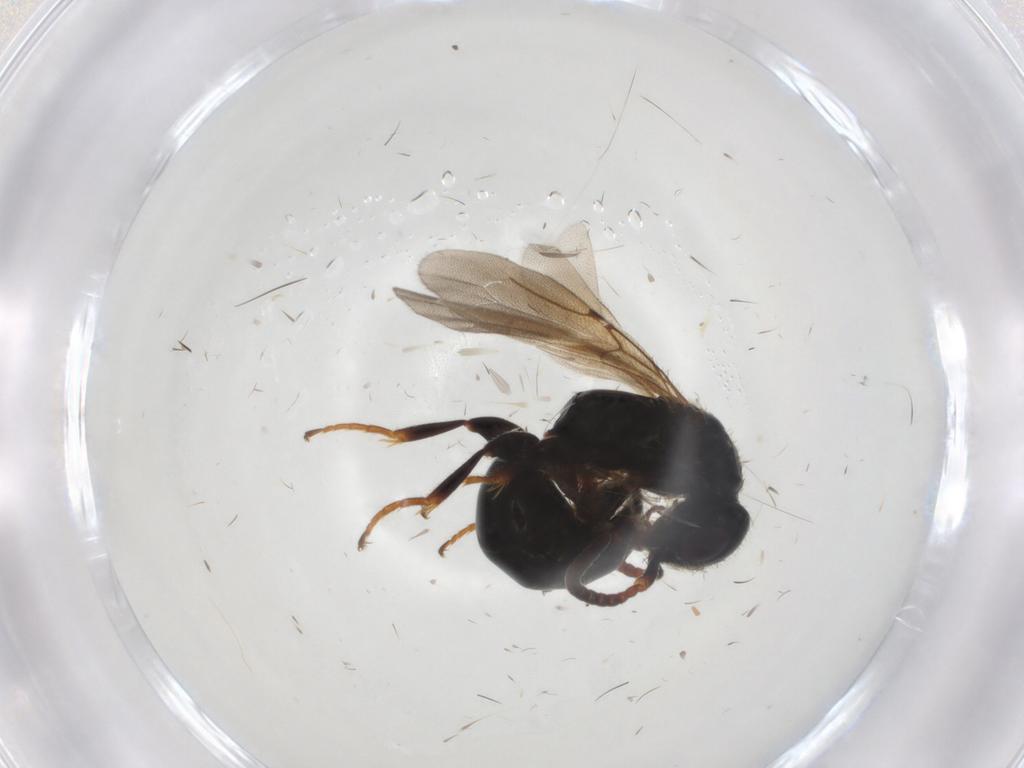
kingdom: Animalia
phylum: Arthropoda
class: Insecta
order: Hymenoptera
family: Bethylidae
